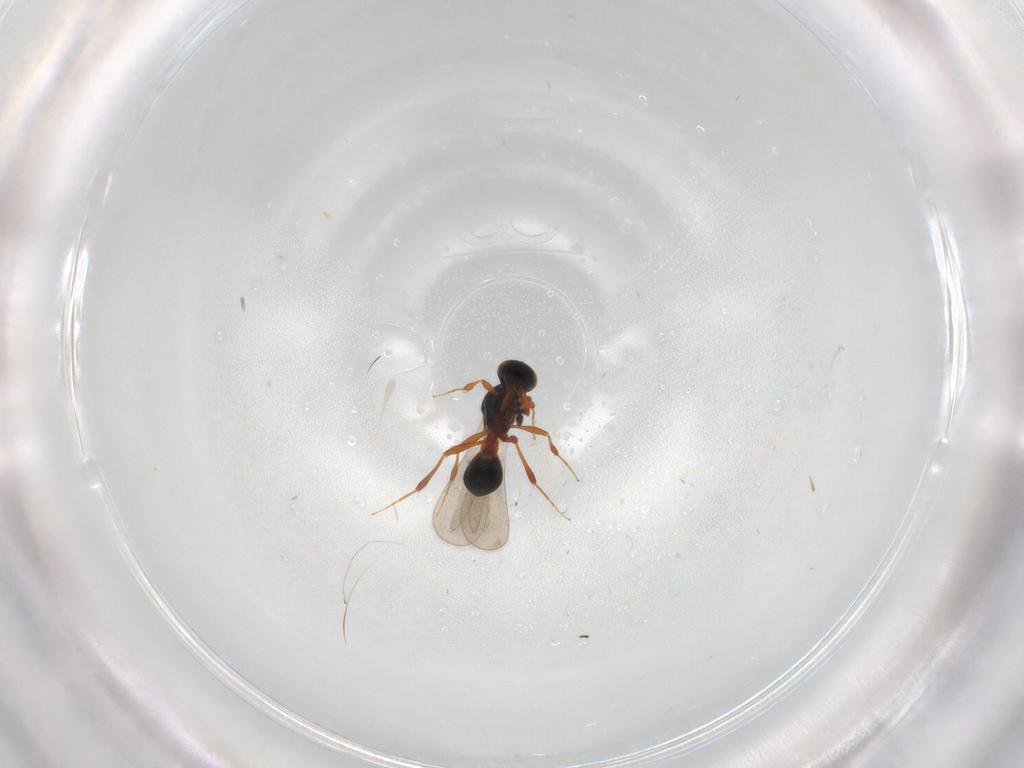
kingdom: Animalia
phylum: Arthropoda
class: Insecta
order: Hymenoptera
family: Platygastridae
